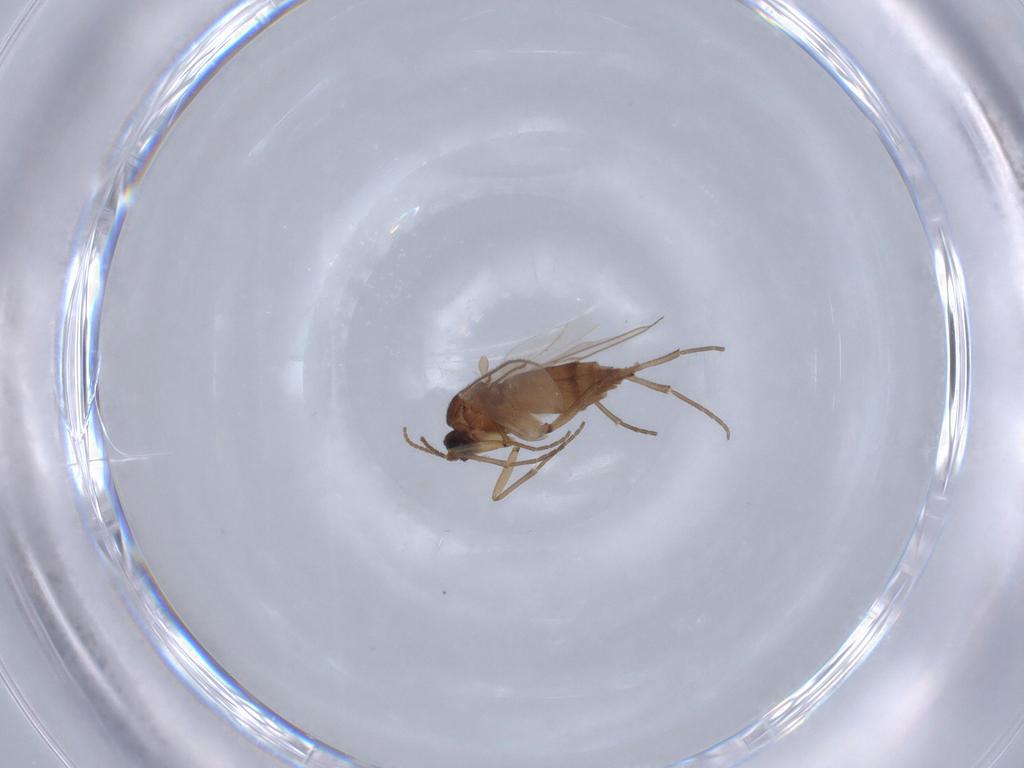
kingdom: Animalia
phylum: Arthropoda
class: Insecta
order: Diptera
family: Sciaridae
